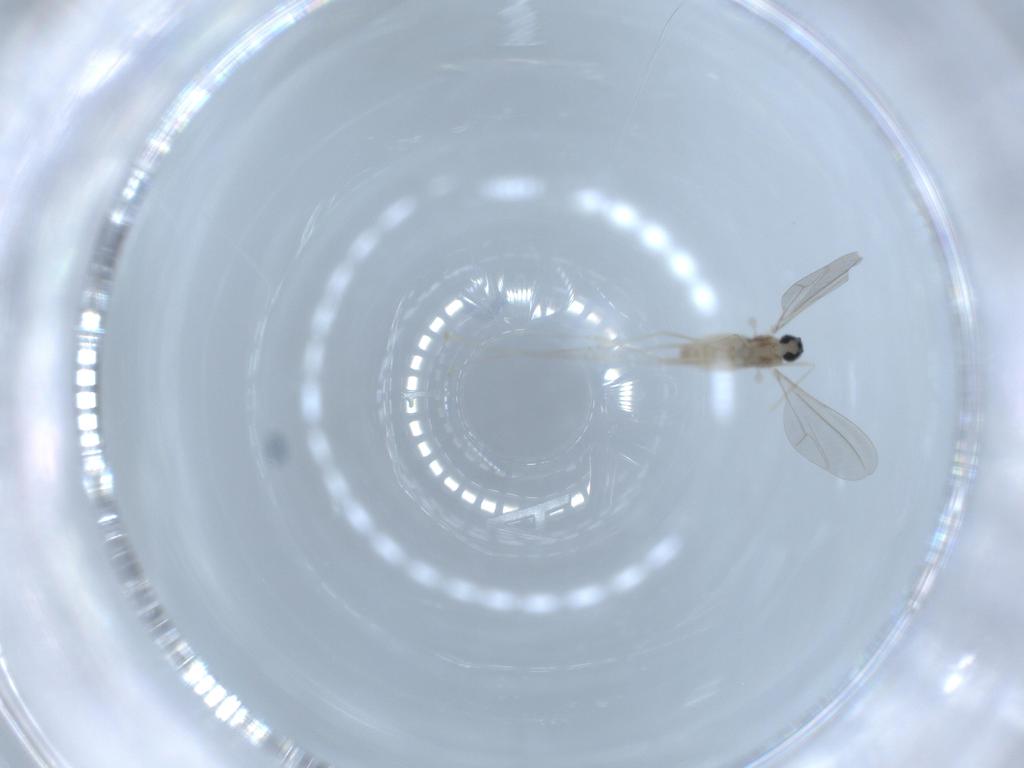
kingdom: Animalia
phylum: Arthropoda
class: Insecta
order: Diptera
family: Cecidomyiidae
